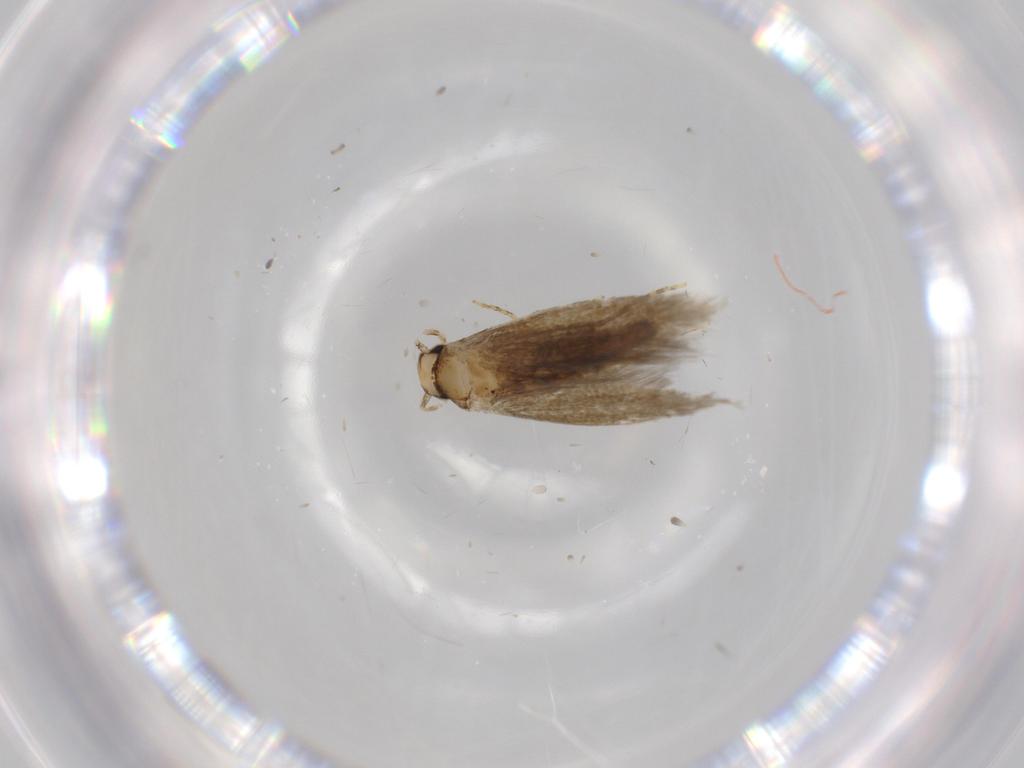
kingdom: Animalia
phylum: Arthropoda
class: Insecta
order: Lepidoptera
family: Tineidae
